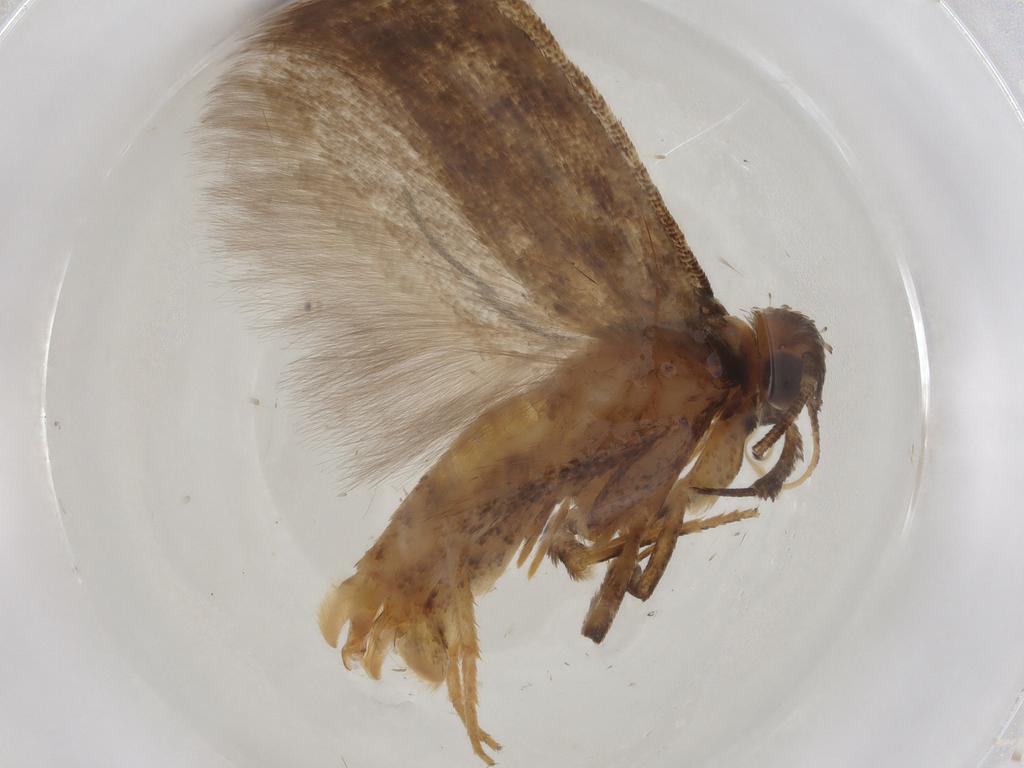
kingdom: Animalia
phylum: Arthropoda
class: Insecta
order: Lepidoptera
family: Gelechiidae
